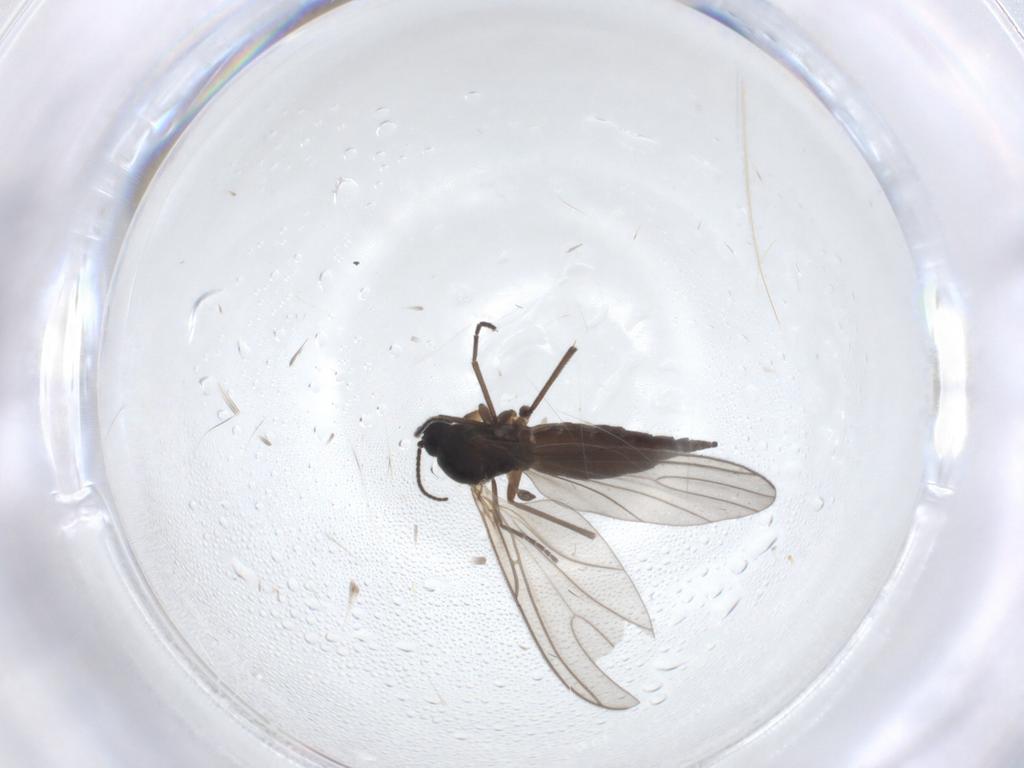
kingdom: Animalia
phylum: Arthropoda
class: Insecta
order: Diptera
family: Sciaridae
